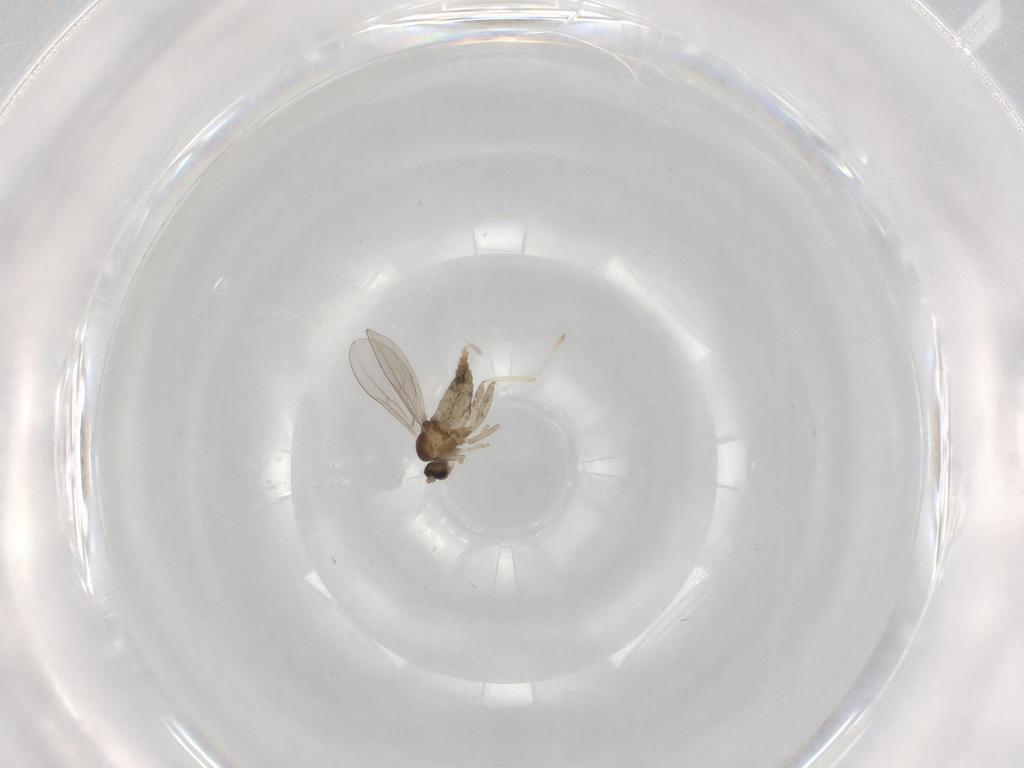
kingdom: Animalia
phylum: Arthropoda
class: Insecta
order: Diptera
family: Cecidomyiidae
